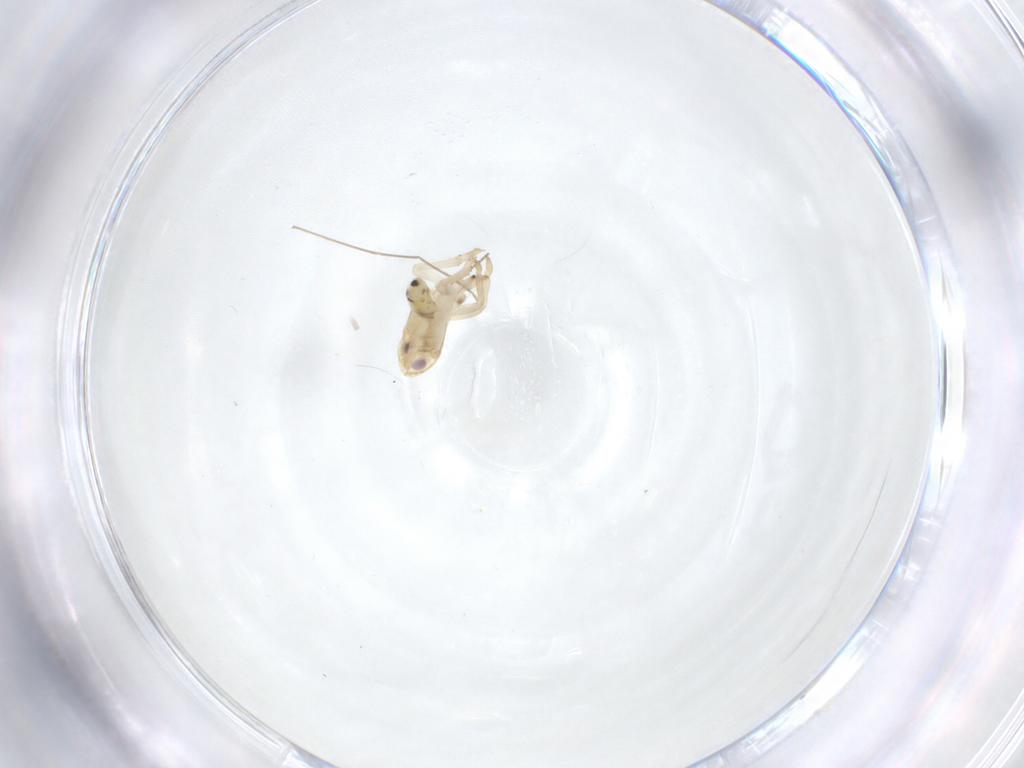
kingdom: Animalia
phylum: Arthropoda
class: Insecta
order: Hemiptera
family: Tropiduchidae
